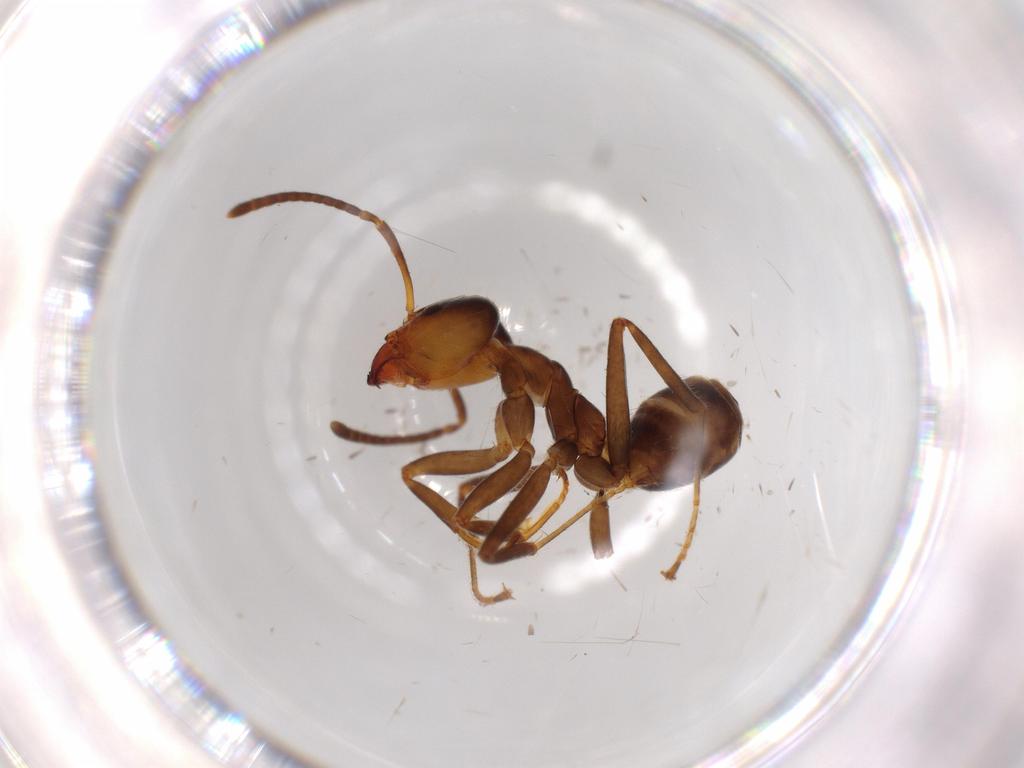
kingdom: Animalia
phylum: Arthropoda
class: Insecta
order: Hymenoptera
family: Formicidae
